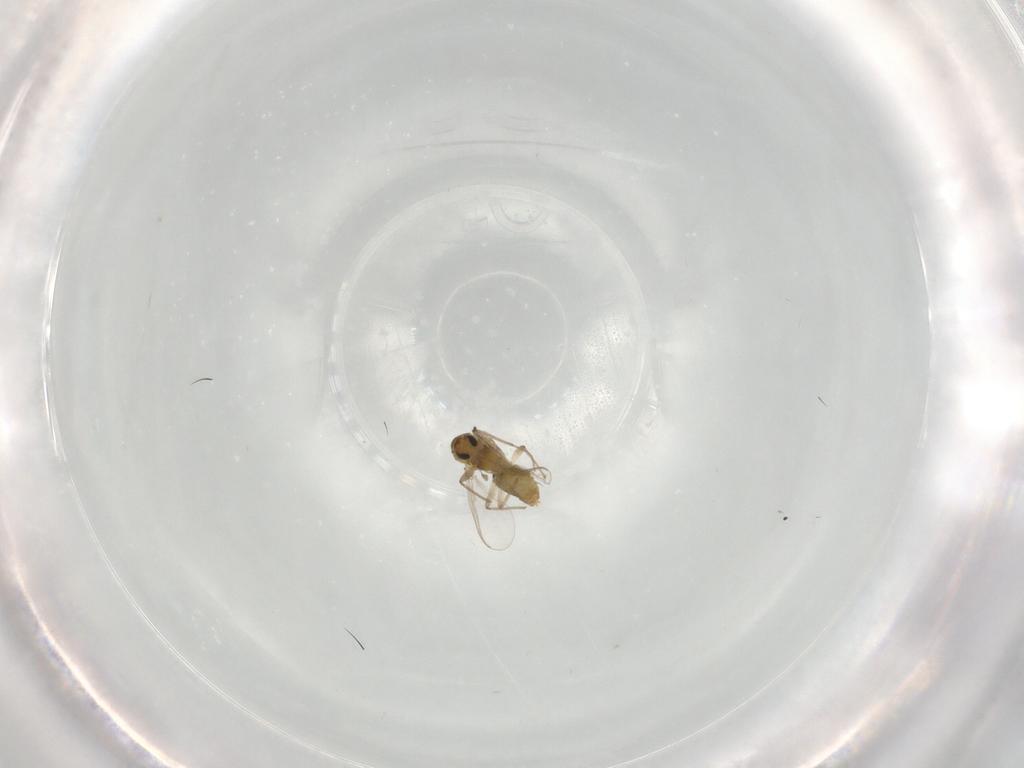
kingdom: Animalia
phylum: Arthropoda
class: Insecta
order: Diptera
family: Chironomidae
